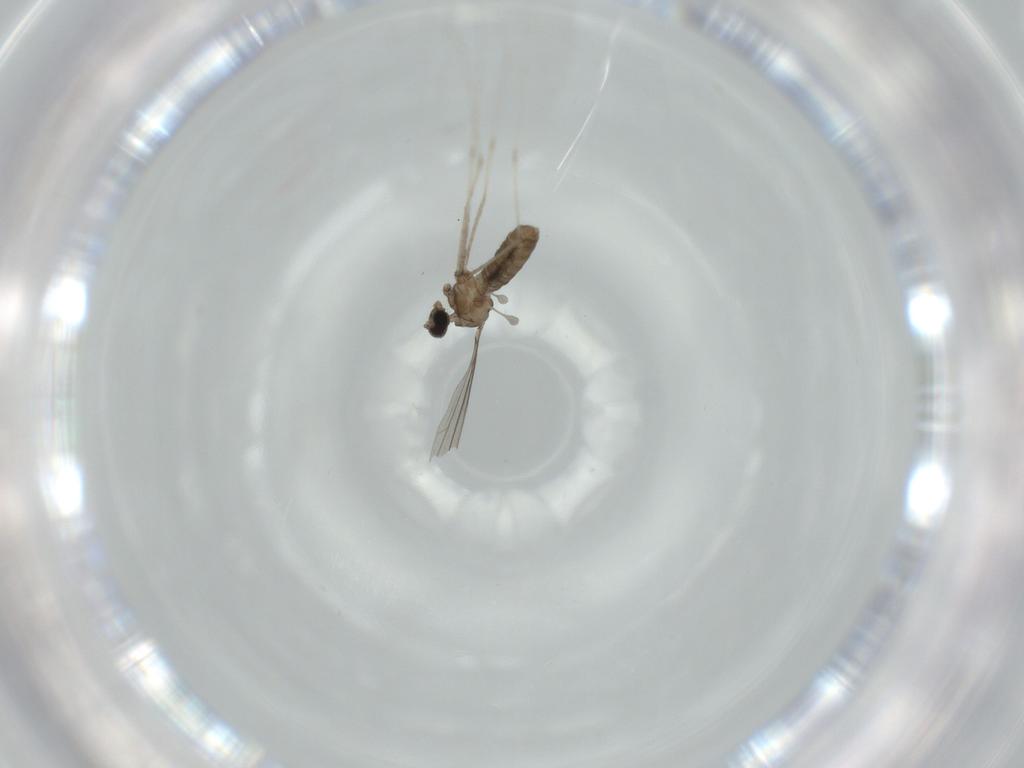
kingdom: Animalia
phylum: Arthropoda
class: Insecta
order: Diptera
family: Cecidomyiidae
